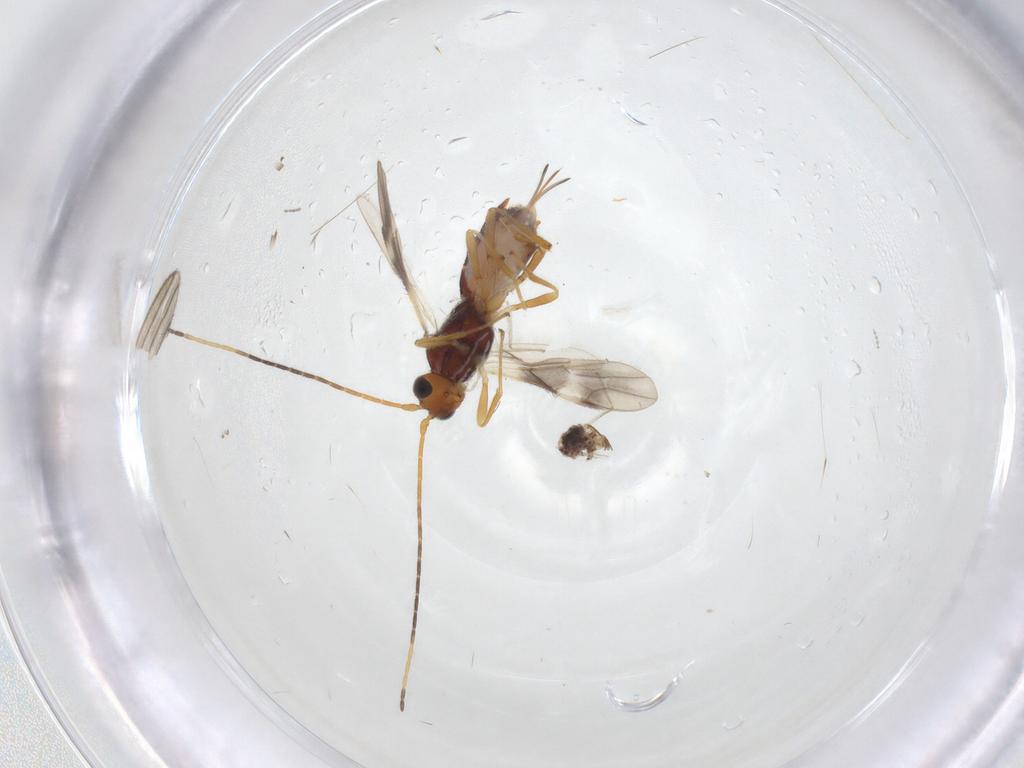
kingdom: Animalia
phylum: Arthropoda
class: Insecta
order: Hymenoptera
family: Braconidae
